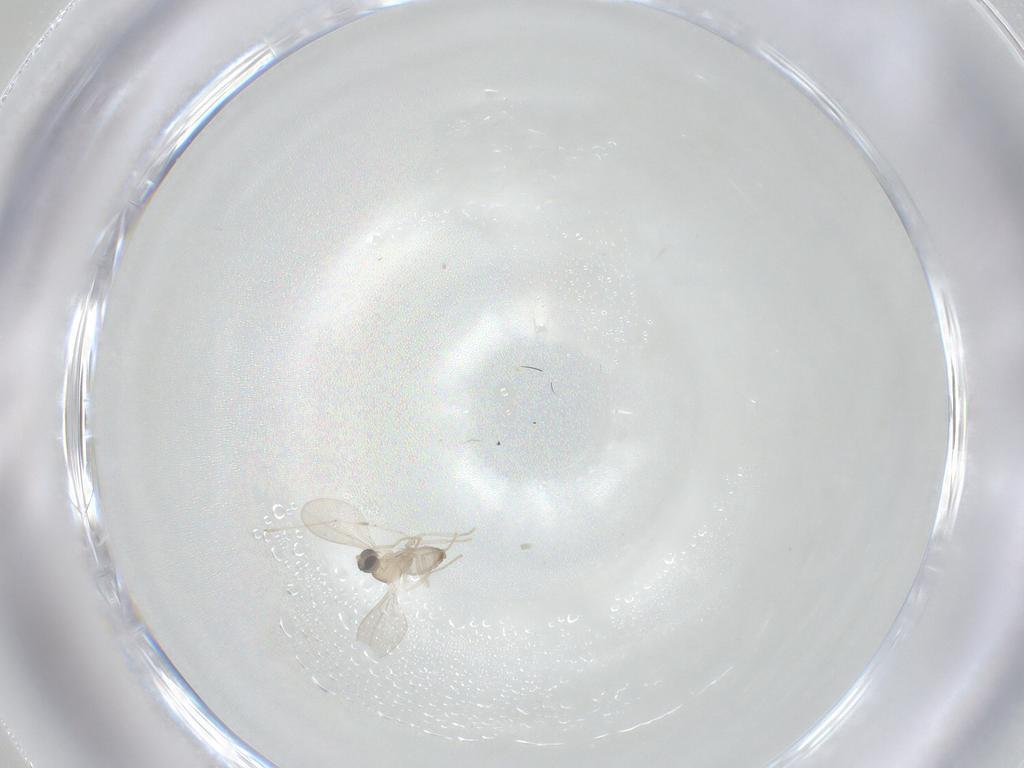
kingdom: Animalia
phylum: Arthropoda
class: Insecta
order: Diptera
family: Cecidomyiidae
